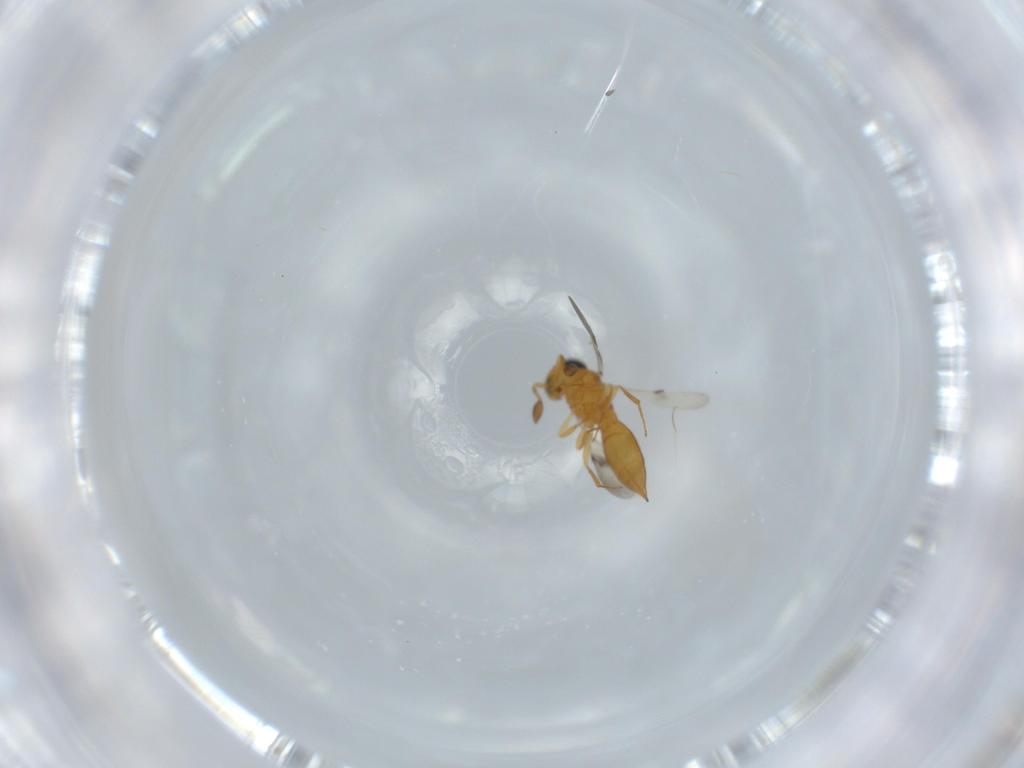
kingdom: Animalia
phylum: Arthropoda
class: Insecta
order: Hymenoptera
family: Scelionidae
